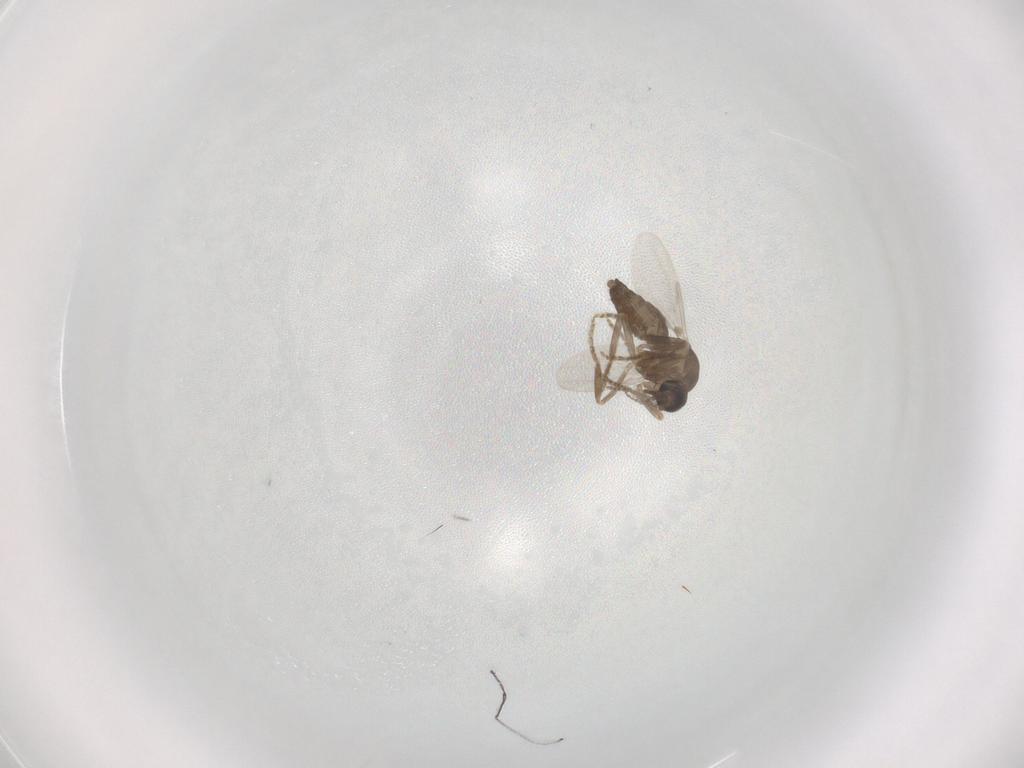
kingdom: Animalia
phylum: Arthropoda
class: Insecta
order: Diptera
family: Ceratopogonidae
